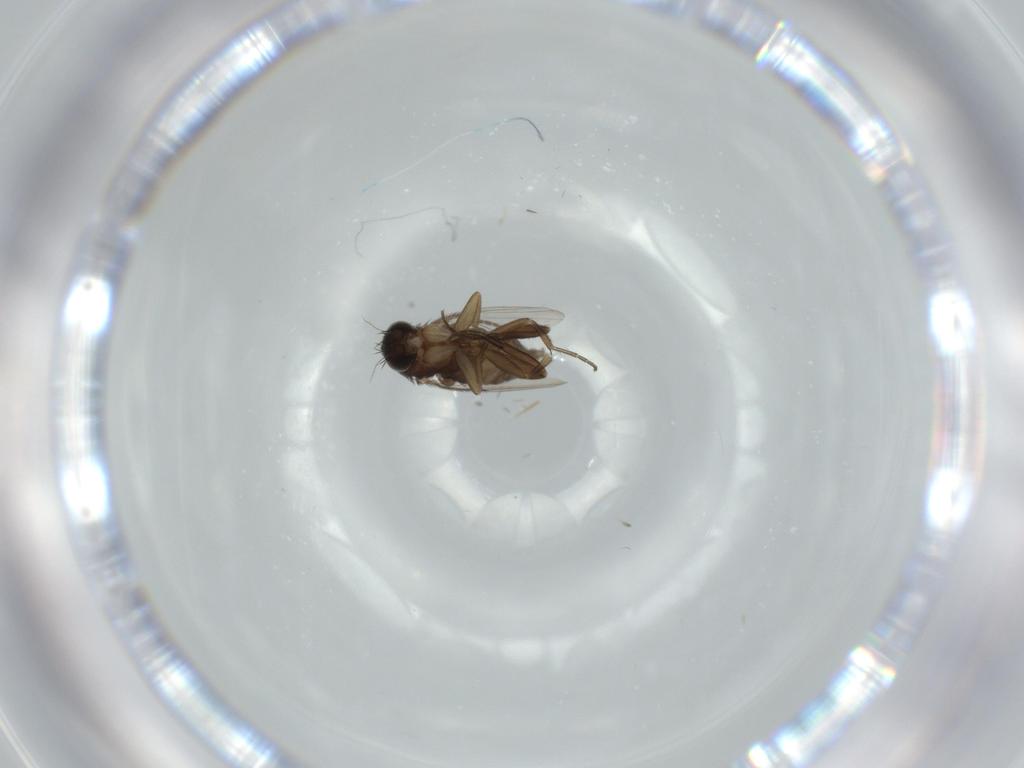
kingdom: Animalia
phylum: Arthropoda
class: Insecta
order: Diptera
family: Phoridae
